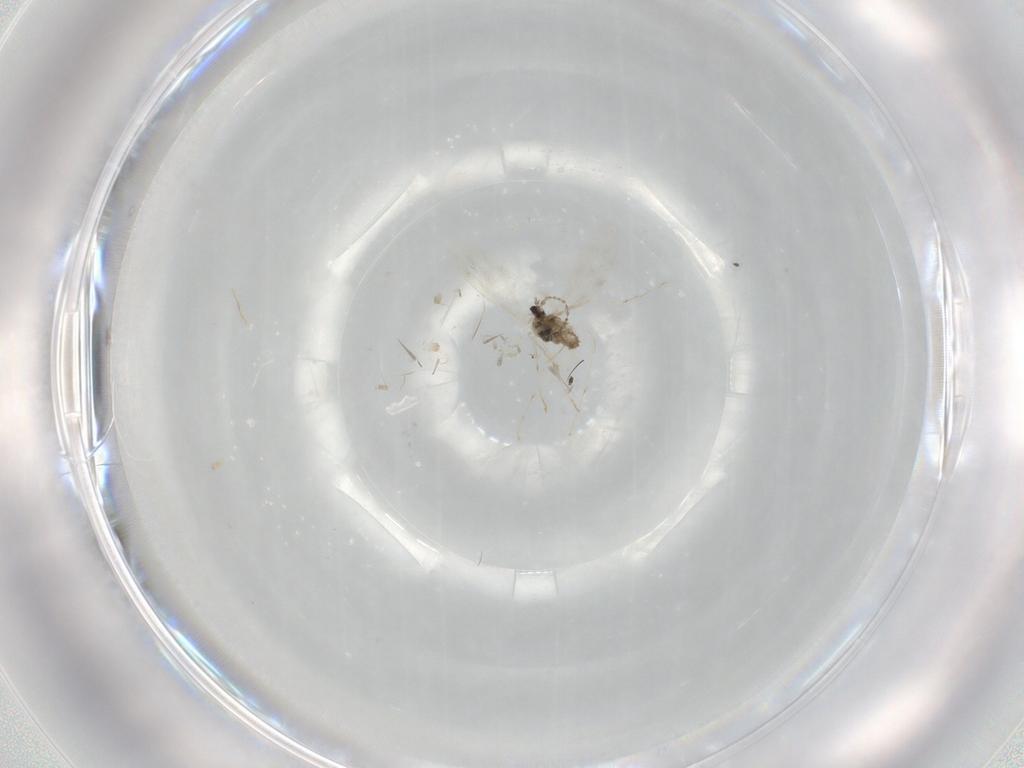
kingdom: Animalia
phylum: Arthropoda
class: Insecta
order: Diptera
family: Cecidomyiidae
